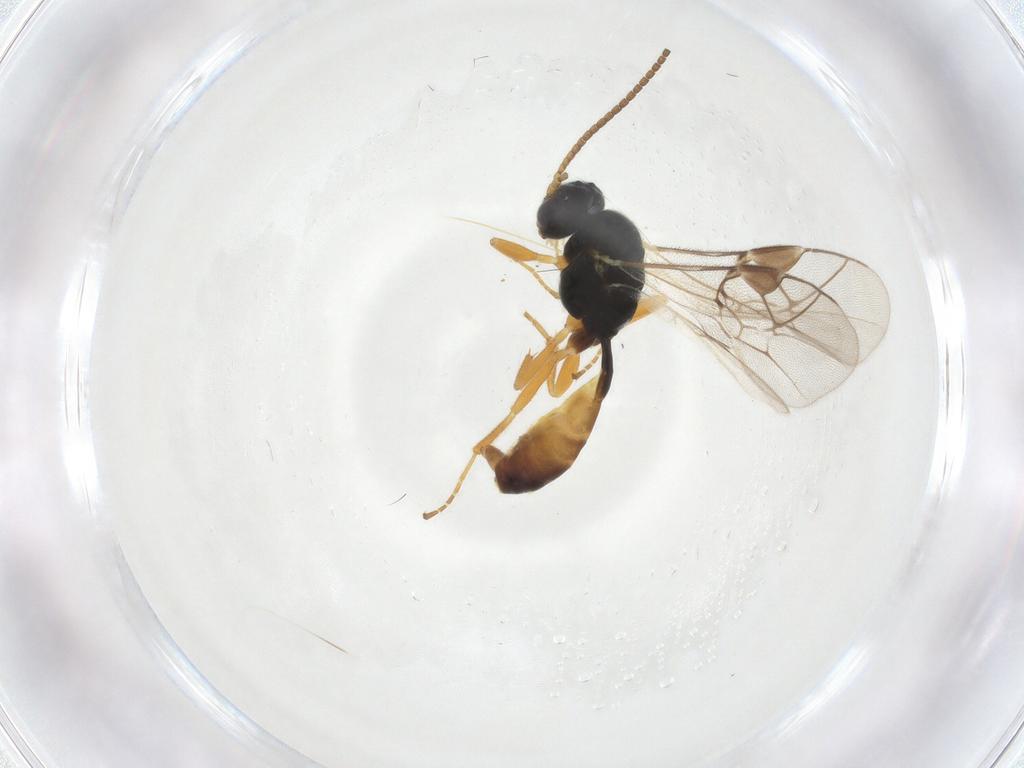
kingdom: Animalia
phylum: Arthropoda
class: Insecta
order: Hymenoptera
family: Ichneumonidae
